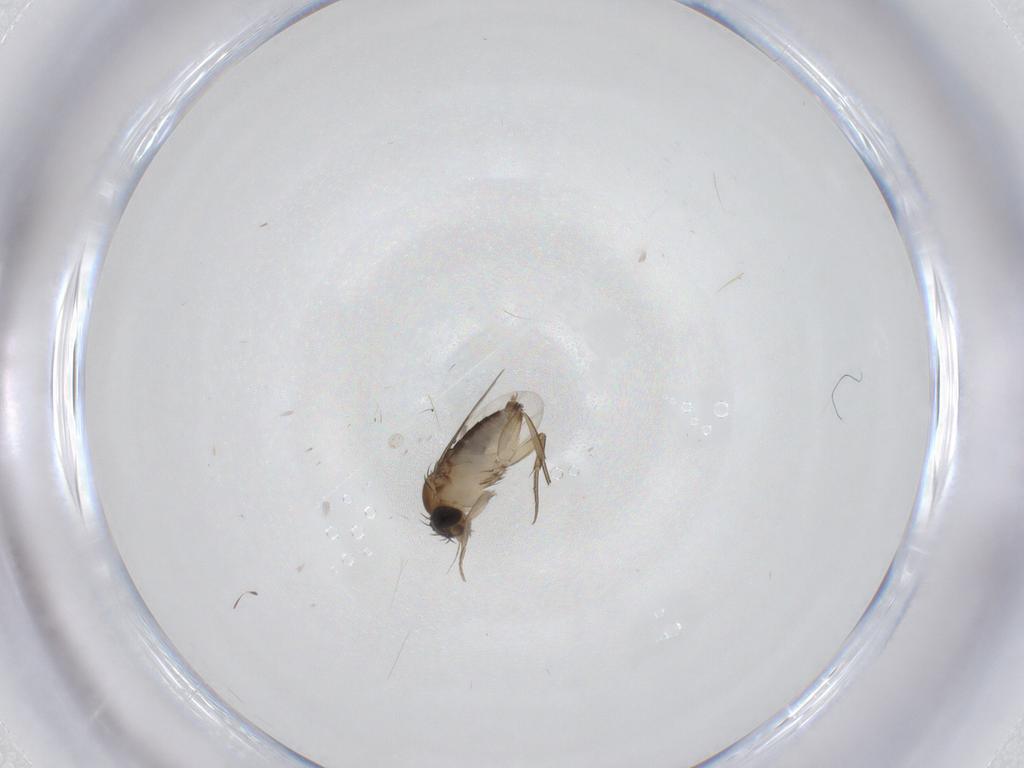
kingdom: Animalia
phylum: Arthropoda
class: Insecta
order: Diptera
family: Phoridae
